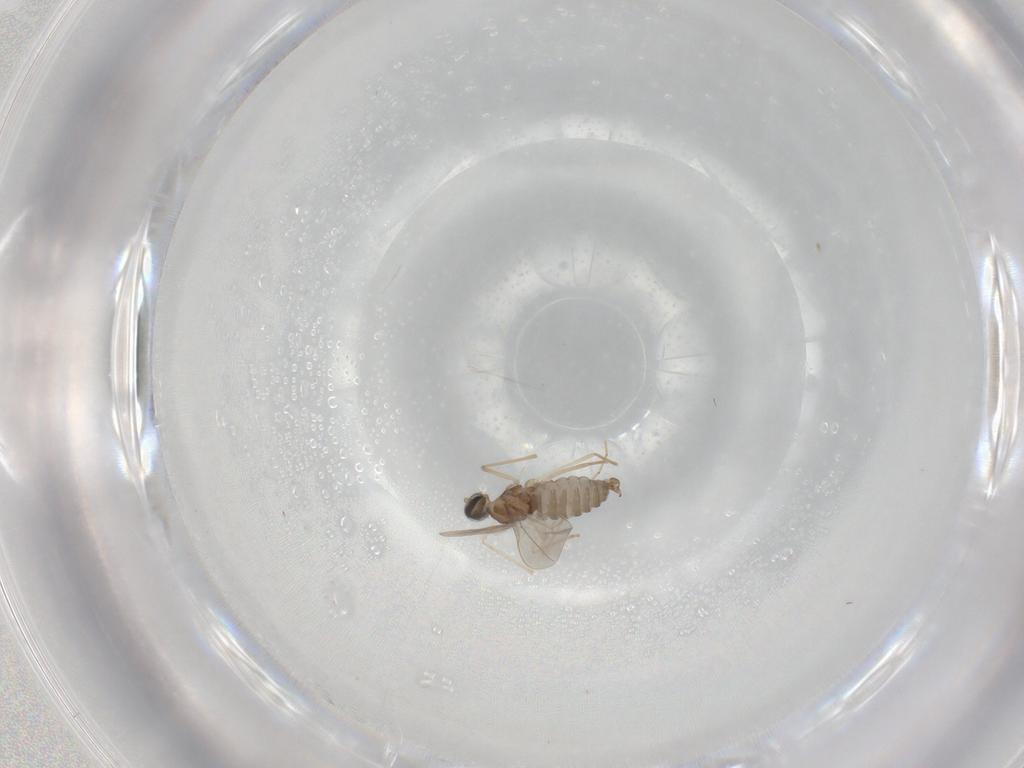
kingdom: Animalia
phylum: Arthropoda
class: Insecta
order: Diptera
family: Cecidomyiidae
